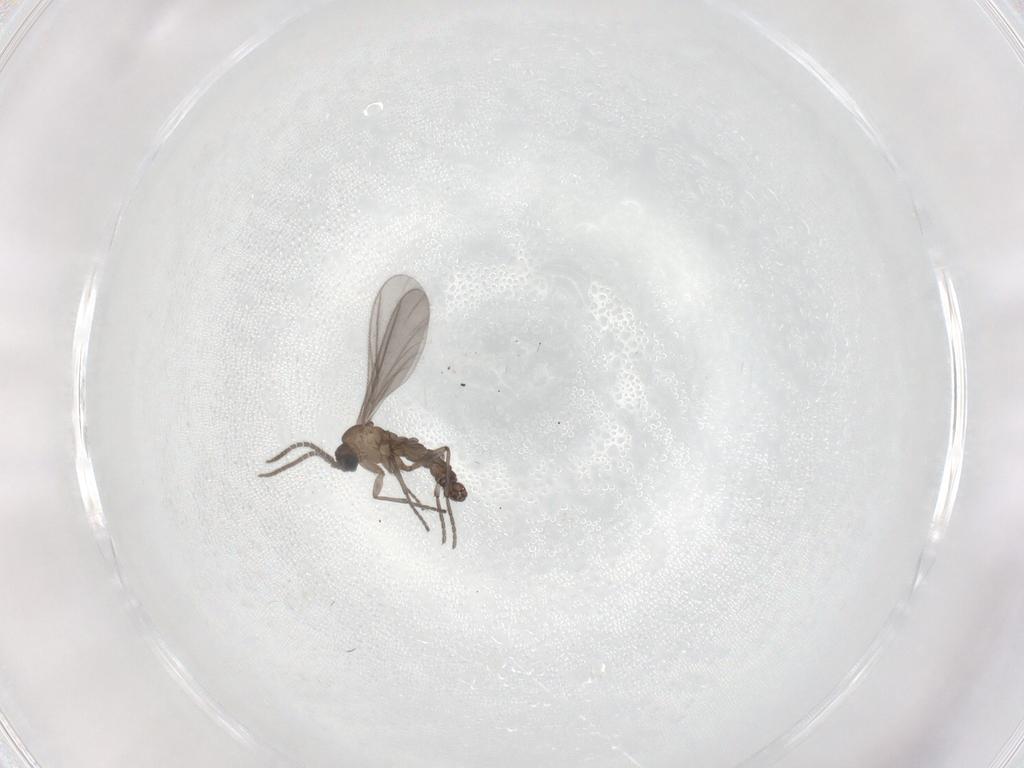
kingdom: Animalia
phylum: Arthropoda
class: Insecta
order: Diptera
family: Sciaridae
